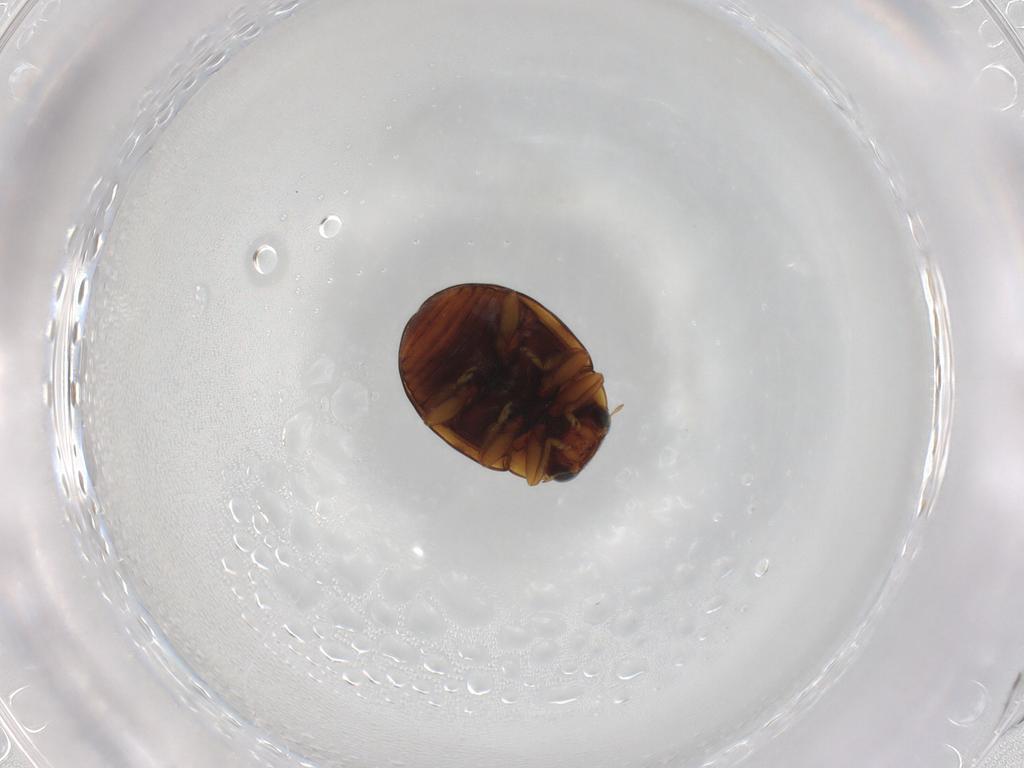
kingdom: Animalia
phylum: Arthropoda
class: Insecta
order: Coleoptera
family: Coccinellidae
